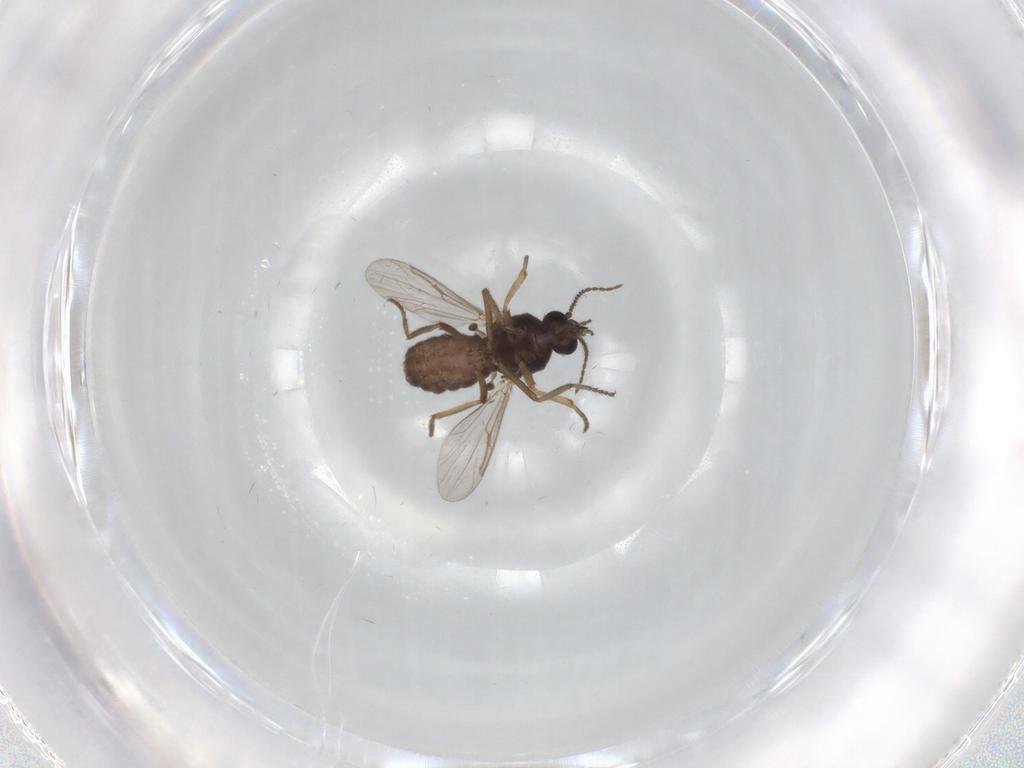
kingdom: Animalia
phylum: Arthropoda
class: Insecta
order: Diptera
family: Ceratopogonidae
